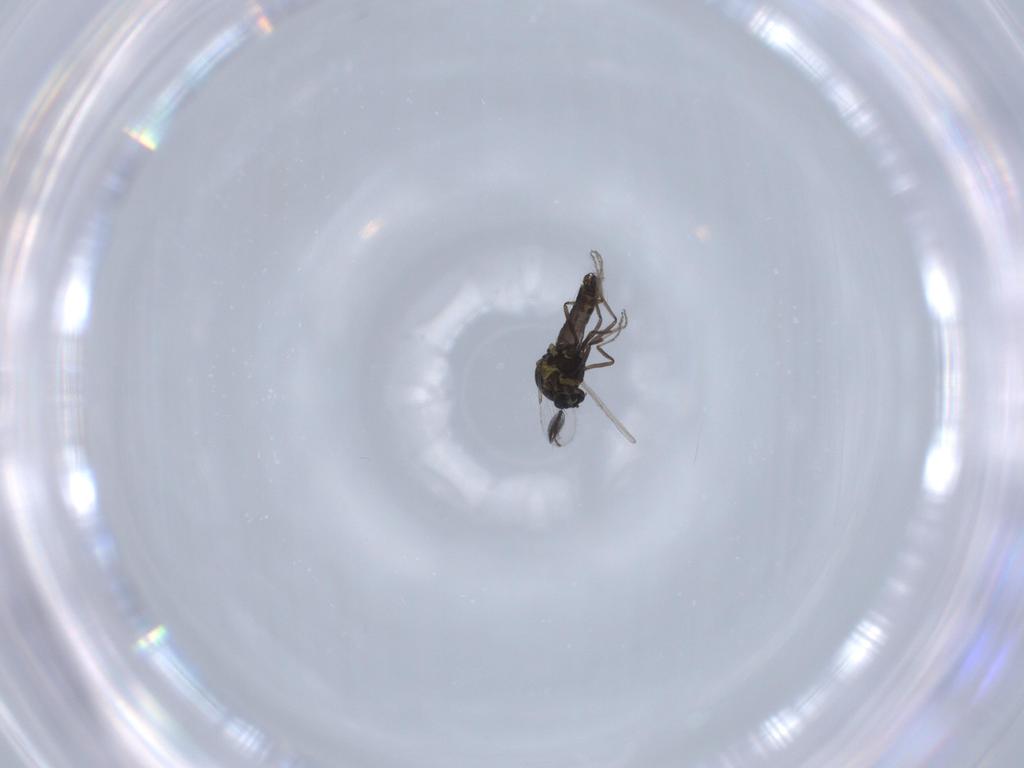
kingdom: Animalia
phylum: Arthropoda
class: Insecta
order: Diptera
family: Ceratopogonidae
